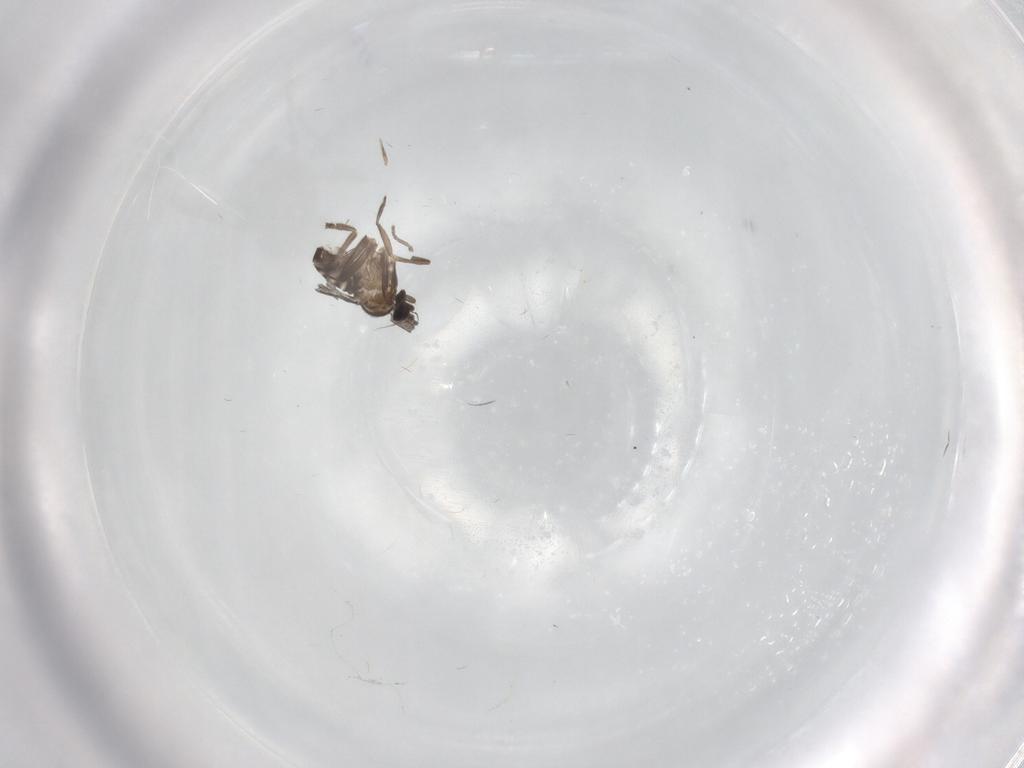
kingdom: Animalia
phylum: Arthropoda
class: Insecta
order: Diptera
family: Phoridae
